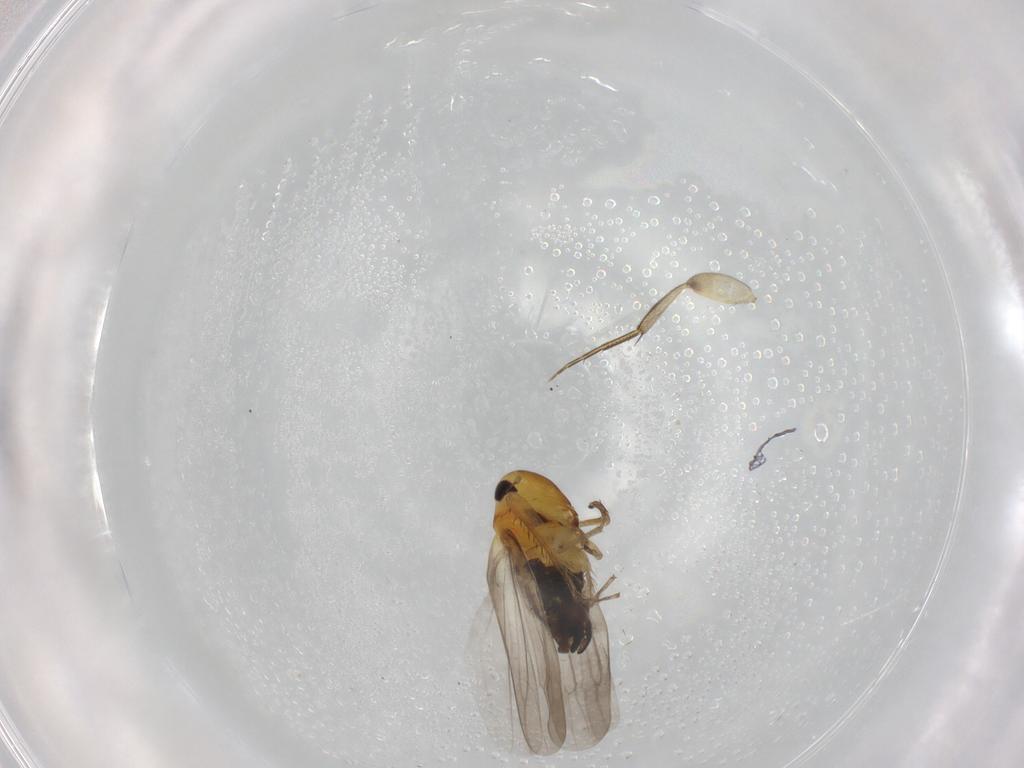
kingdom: Animalia
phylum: Arthropoda
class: Insecta
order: Hemiptera
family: Cicadellidae
